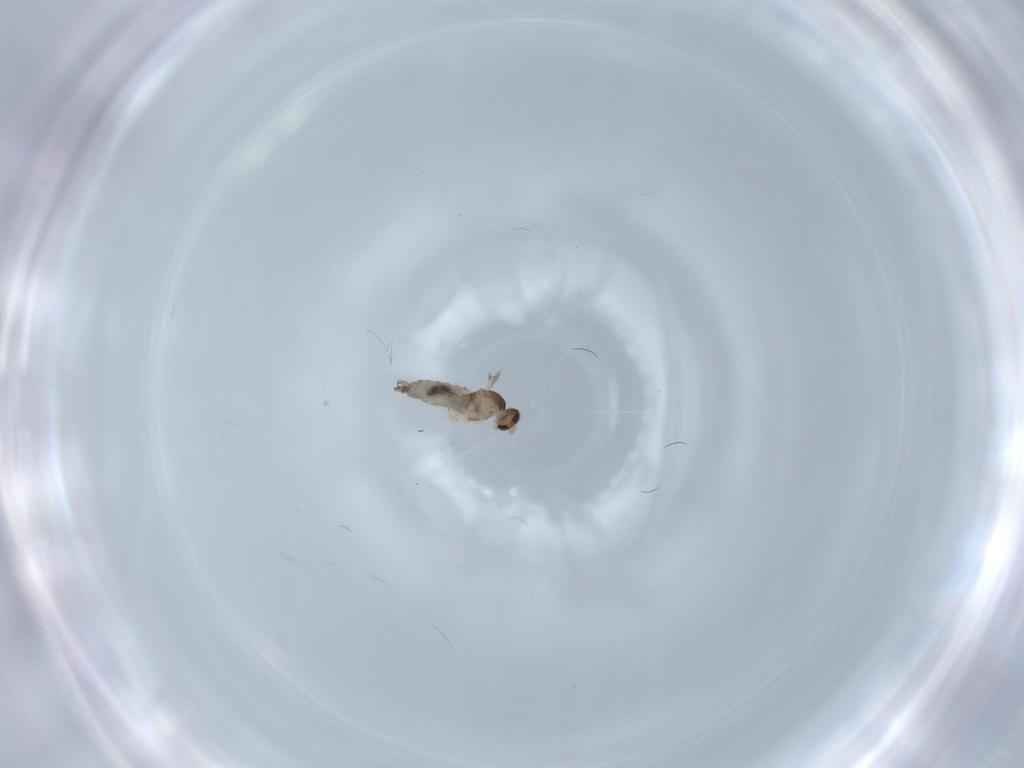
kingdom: Animalia
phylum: Arthropoda
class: Insecta
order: Diptera
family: Cecidomyiidae
